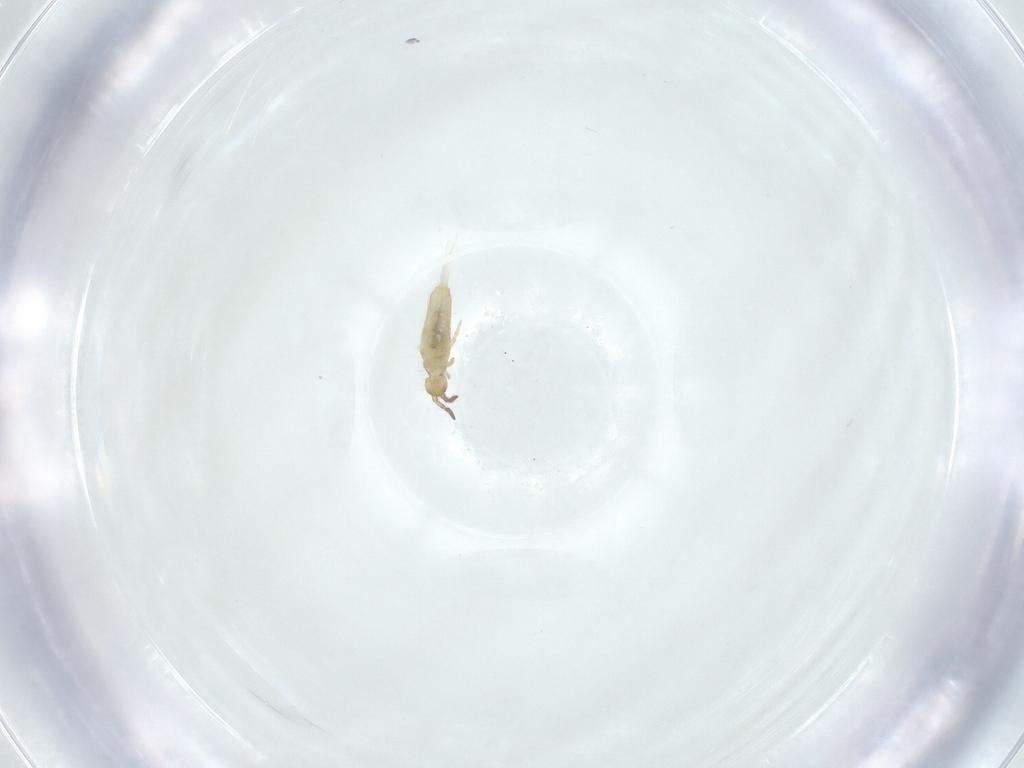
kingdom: Animalia
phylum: Arthropoda
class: Collembola
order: Entomobryomorpha
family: Entomobryidae
